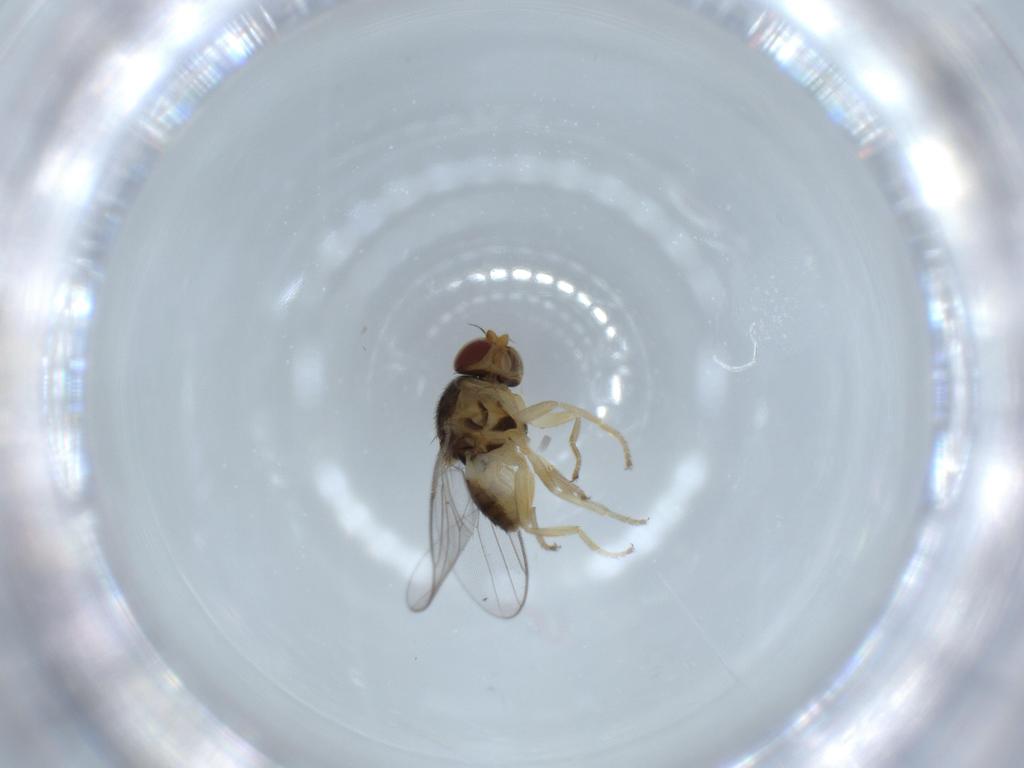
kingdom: Animalia
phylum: Arthropoda
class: Insecta
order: Diptera
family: Chloropidae
